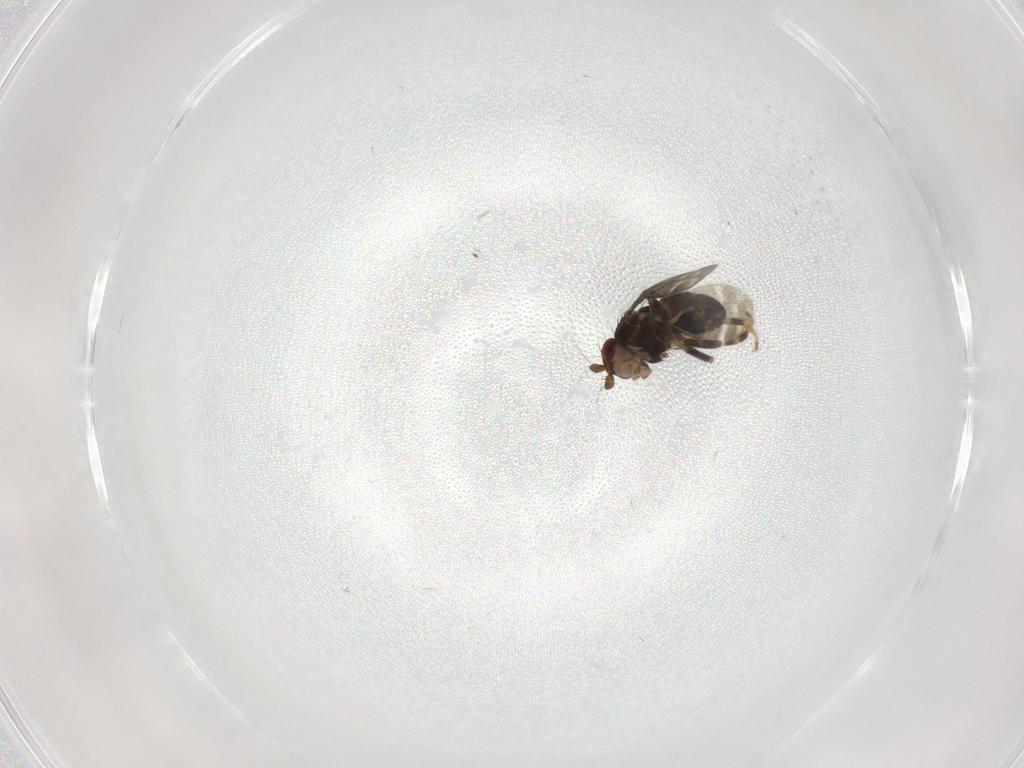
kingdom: Animalia
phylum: Arthropoda
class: Insecta
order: Diptera
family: Sphaeroceridae
